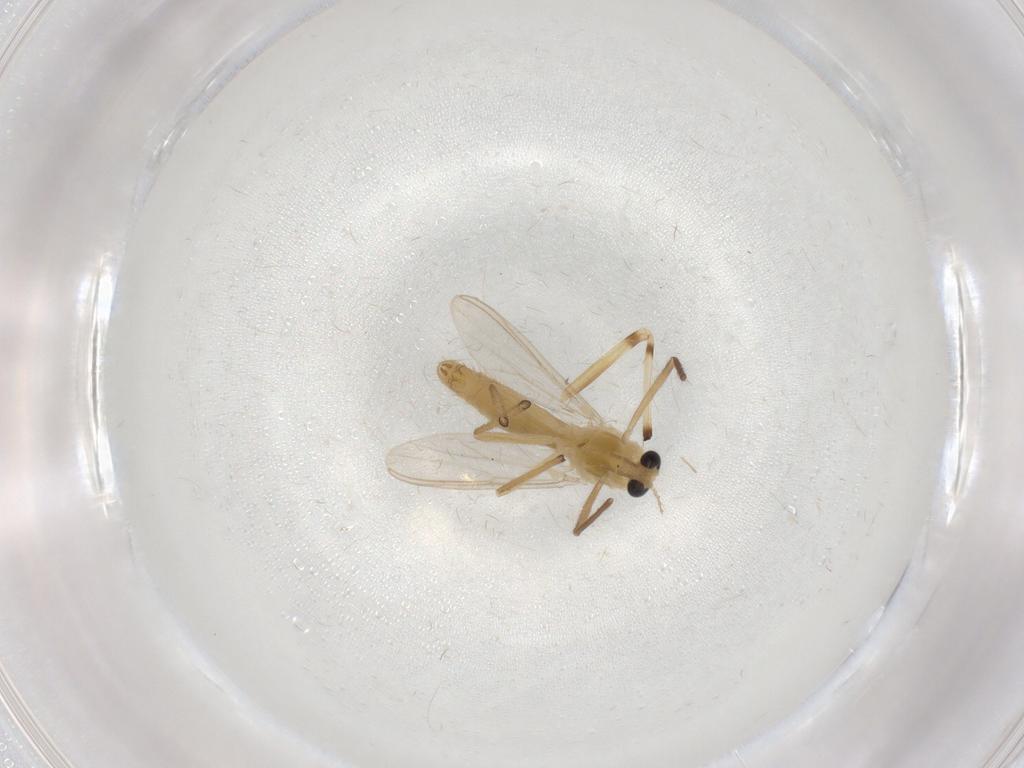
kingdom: Animalia
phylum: Arthropoda
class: Insecta
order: Diptera
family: Chironomidae
